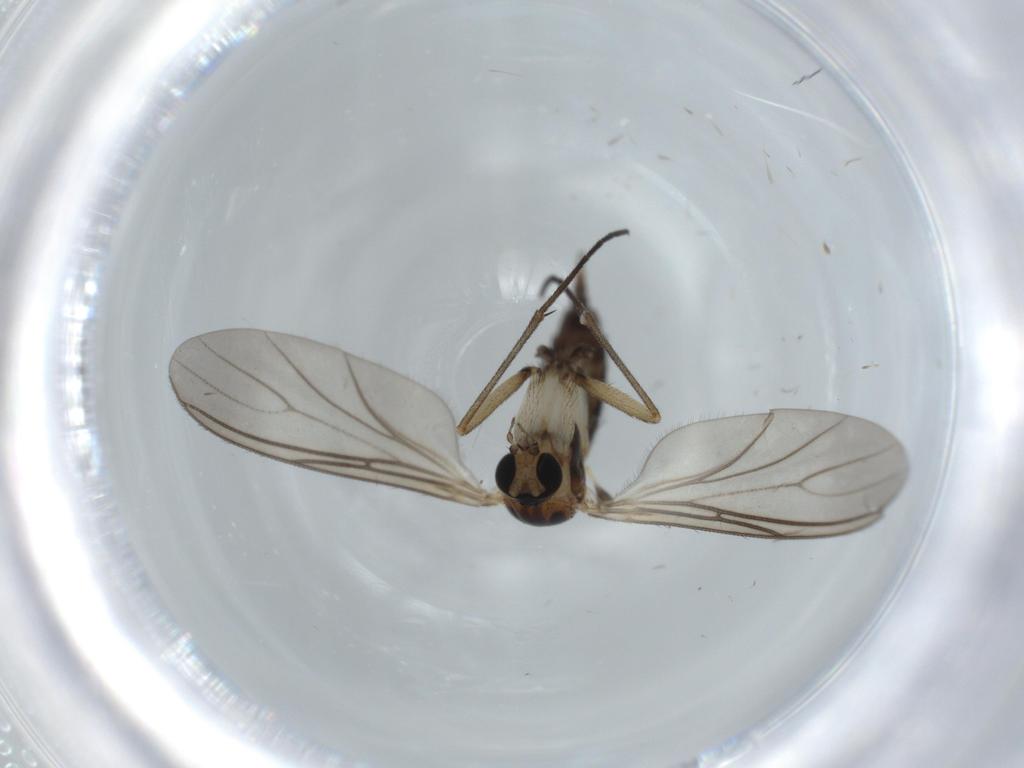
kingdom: Animalia
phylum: Arthropoda
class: Insecta
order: Diptera
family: Sciaridae
